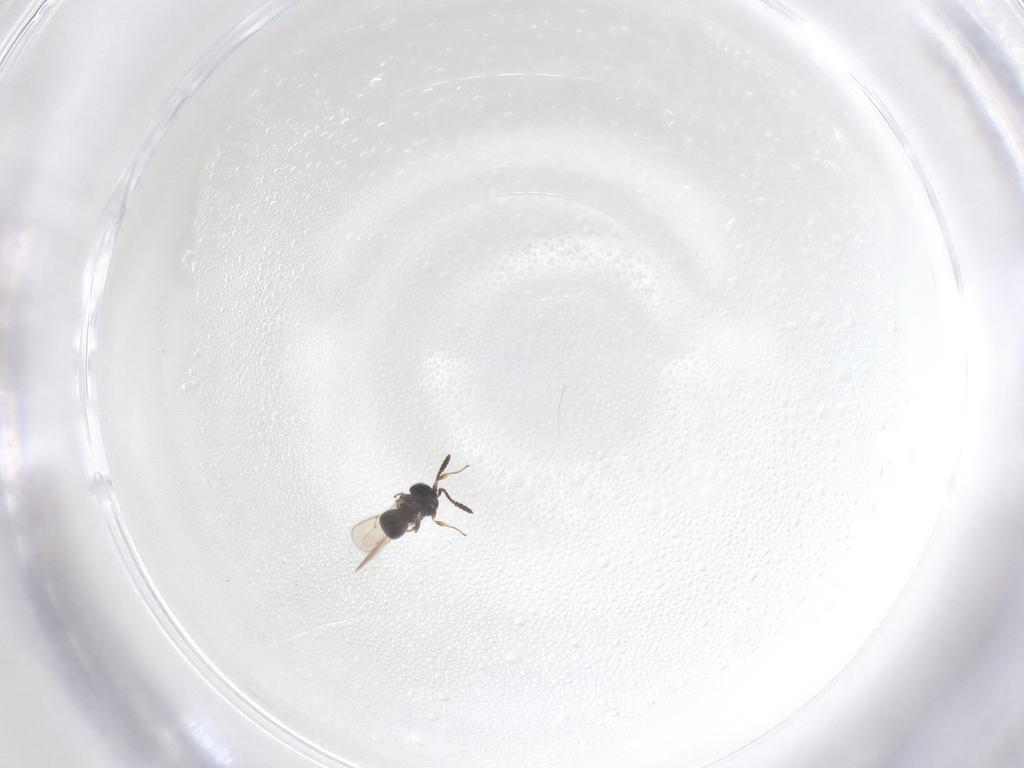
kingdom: Animalia
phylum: Arthropoda
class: Insecta
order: Hymenoptera
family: Scelionidae
